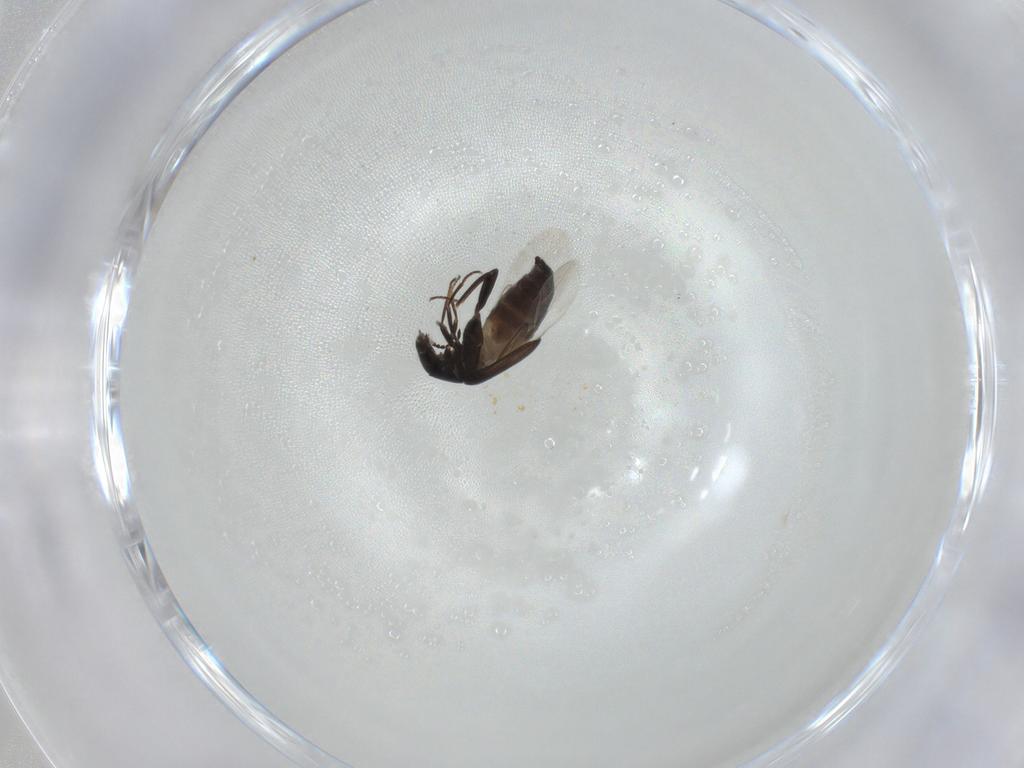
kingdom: Animalia
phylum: Arthropoda
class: Insecta
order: Coleoptera
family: Melyridae
